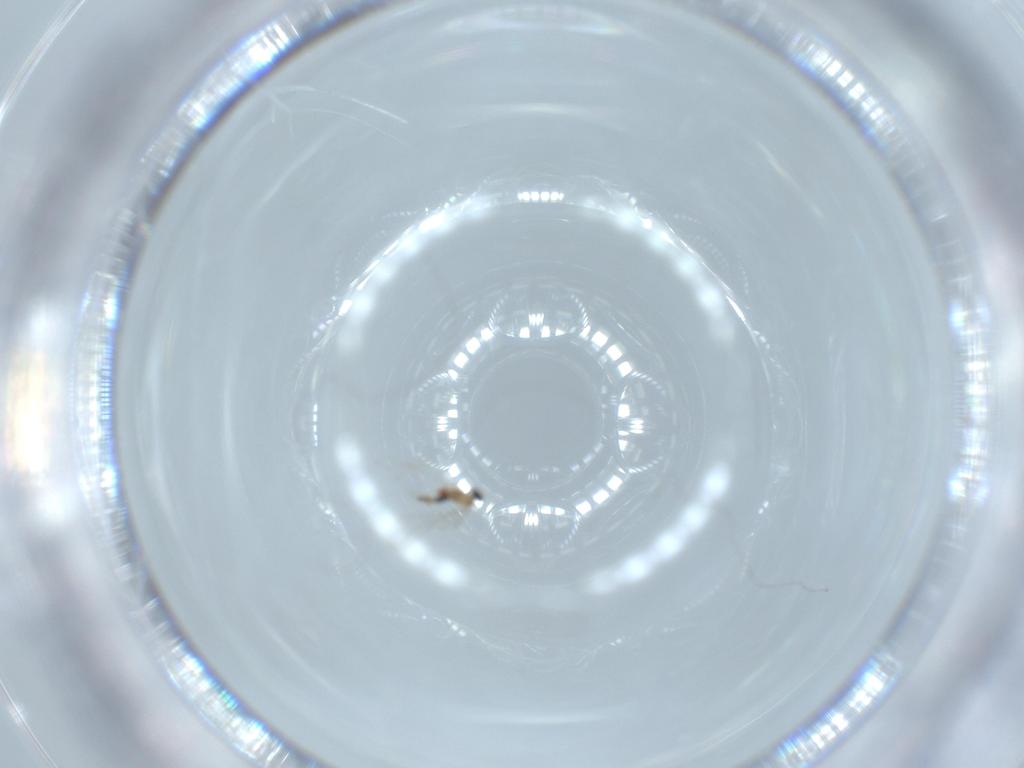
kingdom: Animalia
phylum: Arthropoda
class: Insecta
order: Diptera
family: Cecidomyiidae
